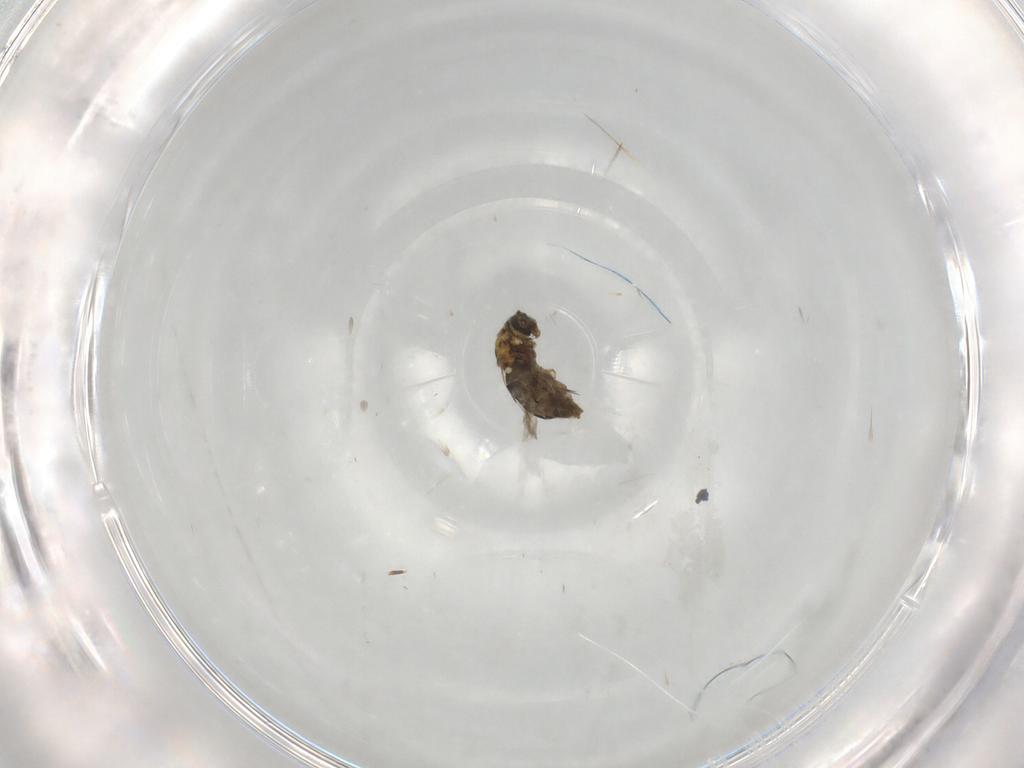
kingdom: Animalia
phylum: Arthropoda
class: Insecta
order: Diptera
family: Ceratopogonidae
